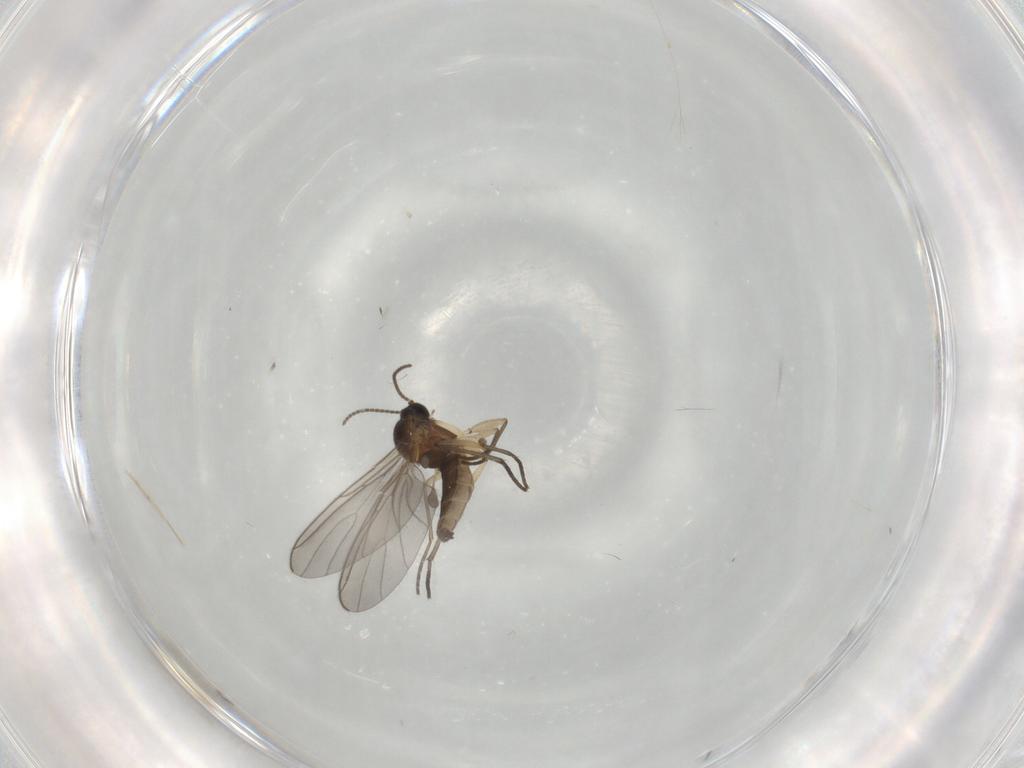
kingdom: Animalia
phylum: Arthropoda
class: Insecta
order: Diptera
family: Sciaridae
